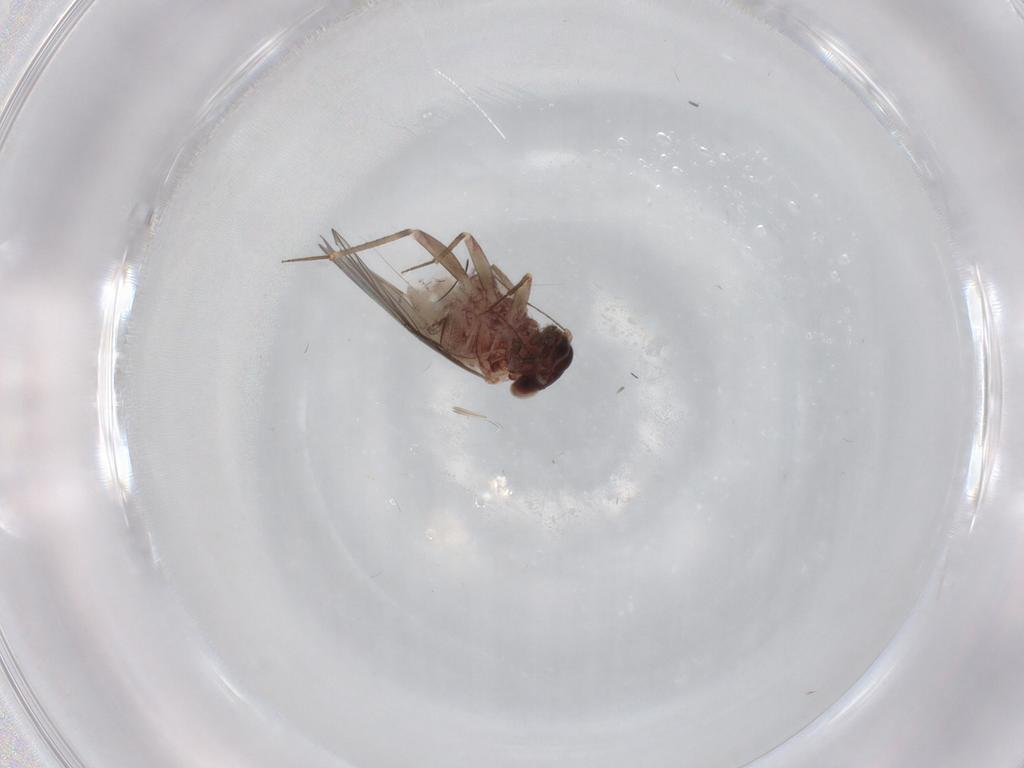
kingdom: Animalia
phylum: Arthropoda
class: Insecta
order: Psocodea
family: Lepidopsocidae
